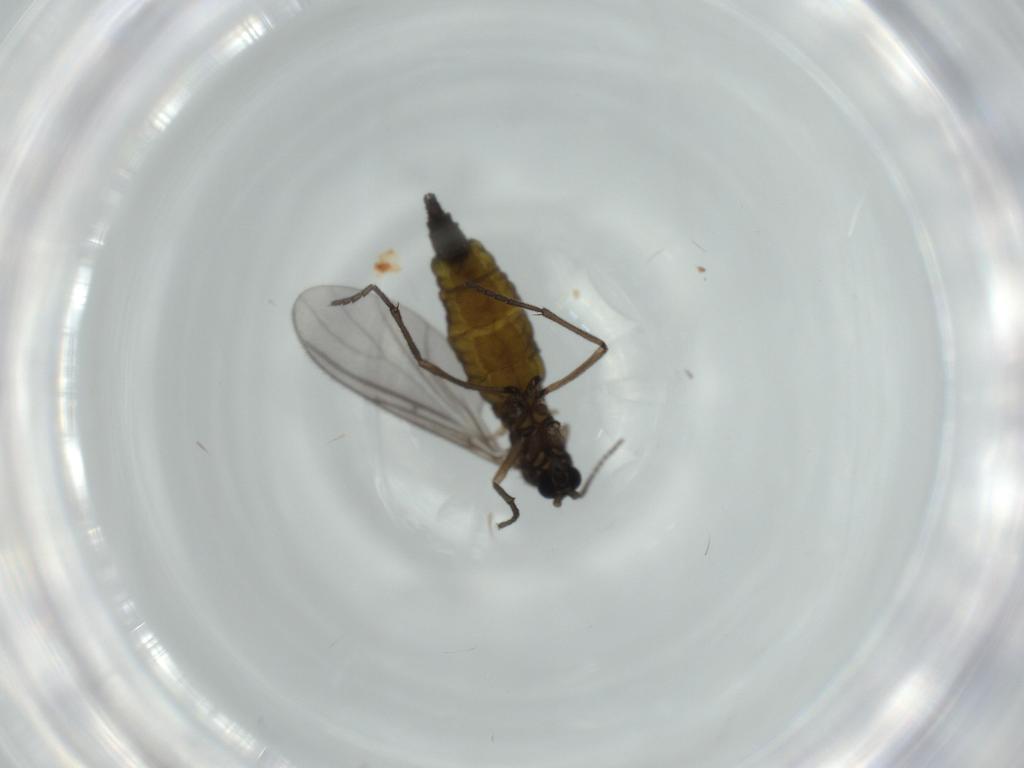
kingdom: Animalia
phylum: Arthropoda
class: Insecta
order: Diptera
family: Sciaridae
